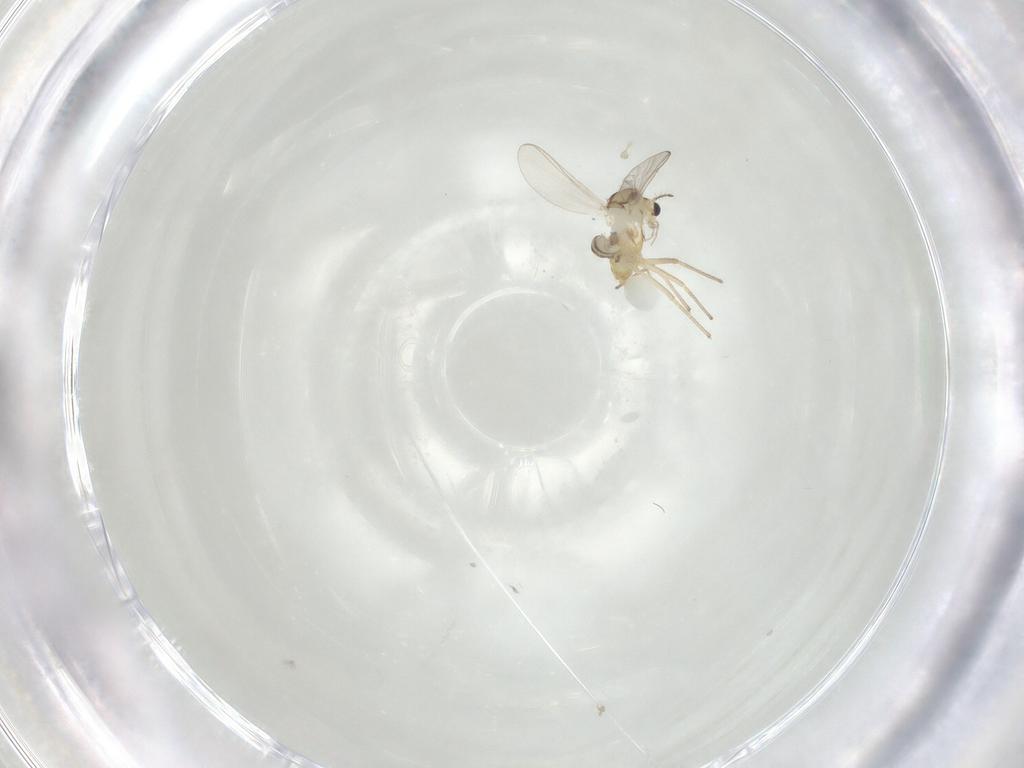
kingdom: Animalia
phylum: Arthropoda
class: Insecta
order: Diptera
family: Chironomidae
